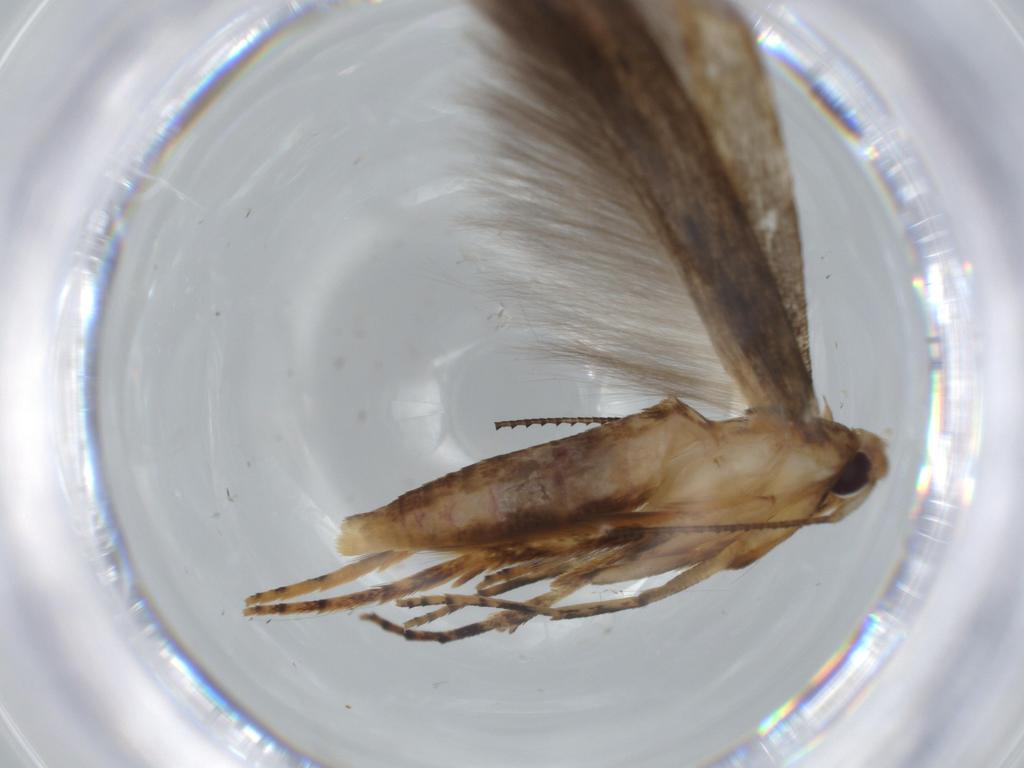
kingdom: Animalia
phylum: Arthropoda
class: Insecta
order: Lepidoptera
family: Heliodinidae
